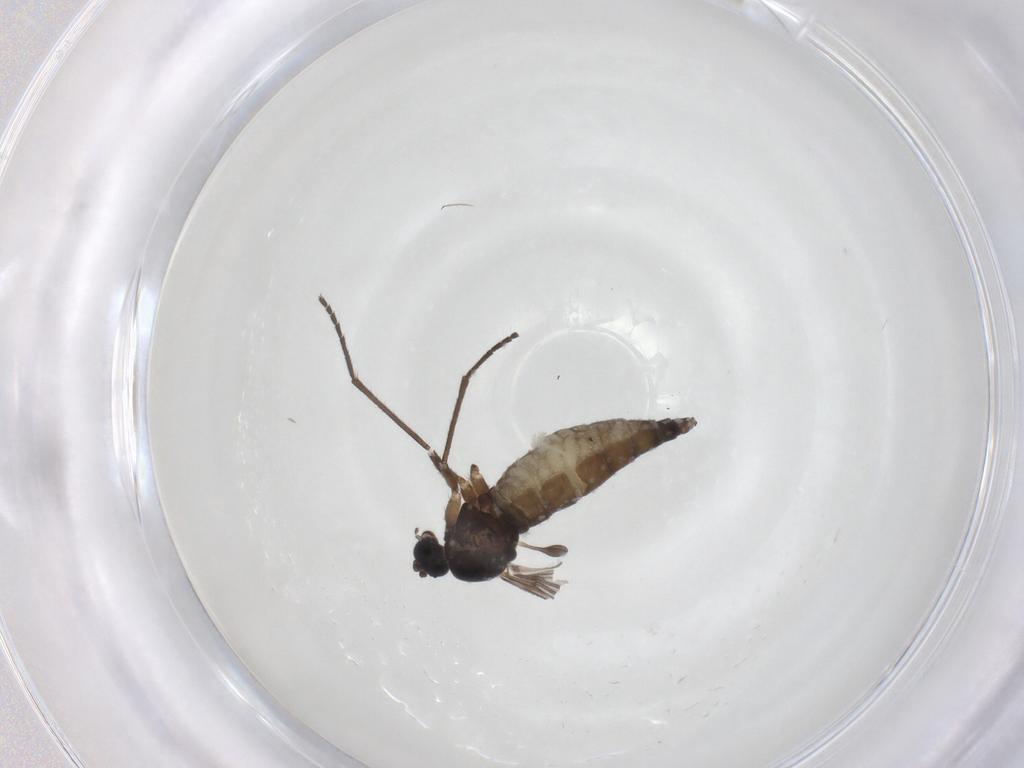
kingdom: Animalia
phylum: Arthropoda
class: Insecta
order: Diptera
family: Sciaridae
